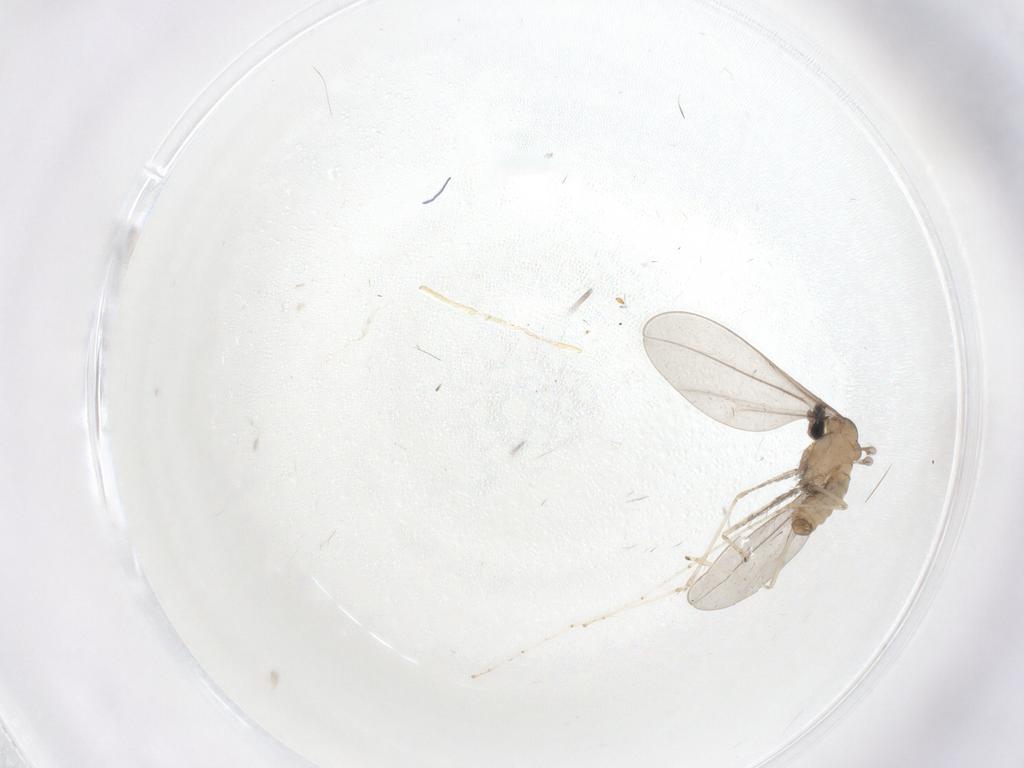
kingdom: Animalia
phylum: Arthropoda
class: Insecta
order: Diptera
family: Cecidomyiidae
